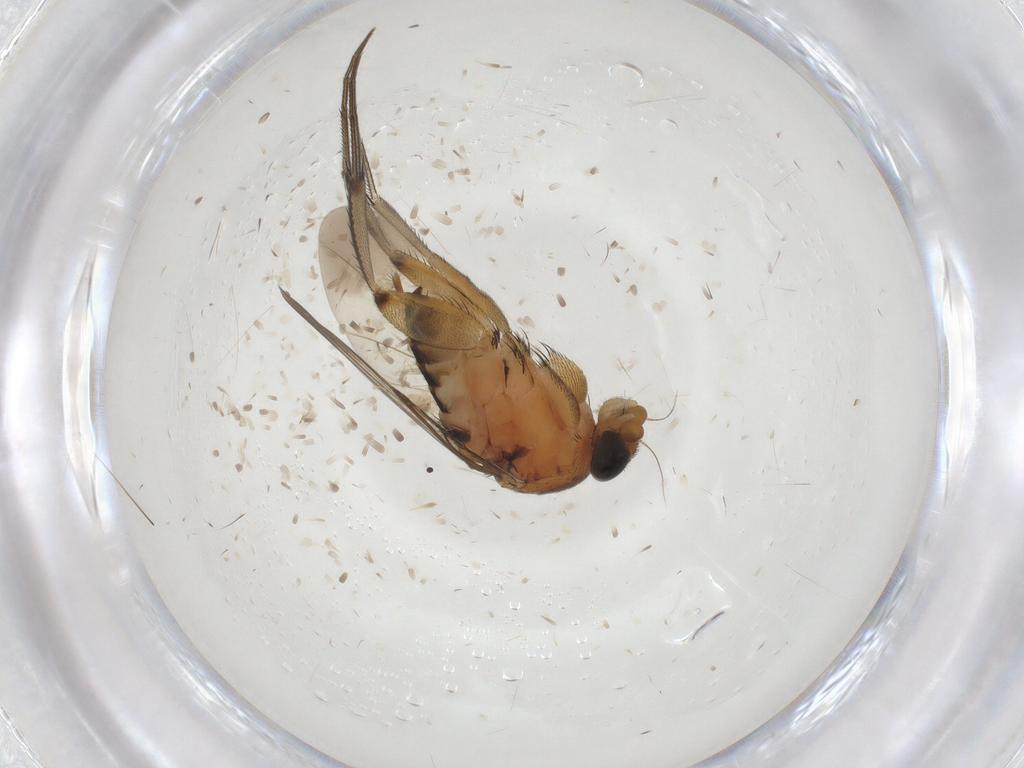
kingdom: Animalia
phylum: Arthropoda
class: Insecta
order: Diptera
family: Phoridae
